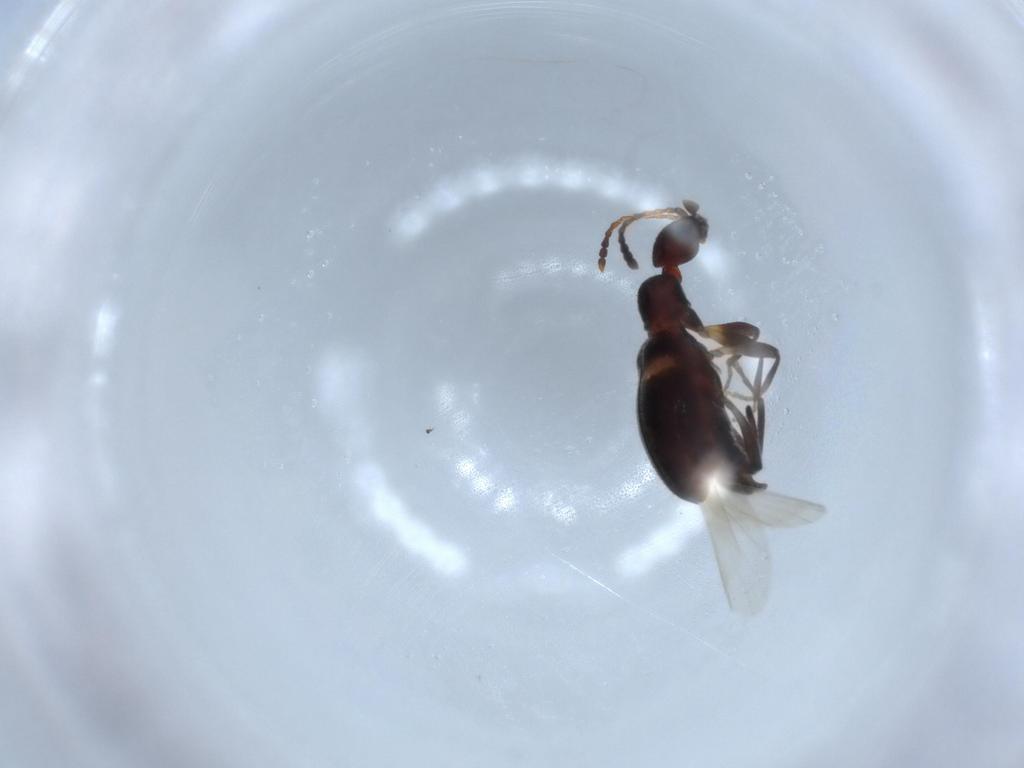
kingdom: Animalia
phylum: Arthropoda
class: Insecta
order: Coleoptera
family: Anthicidae
